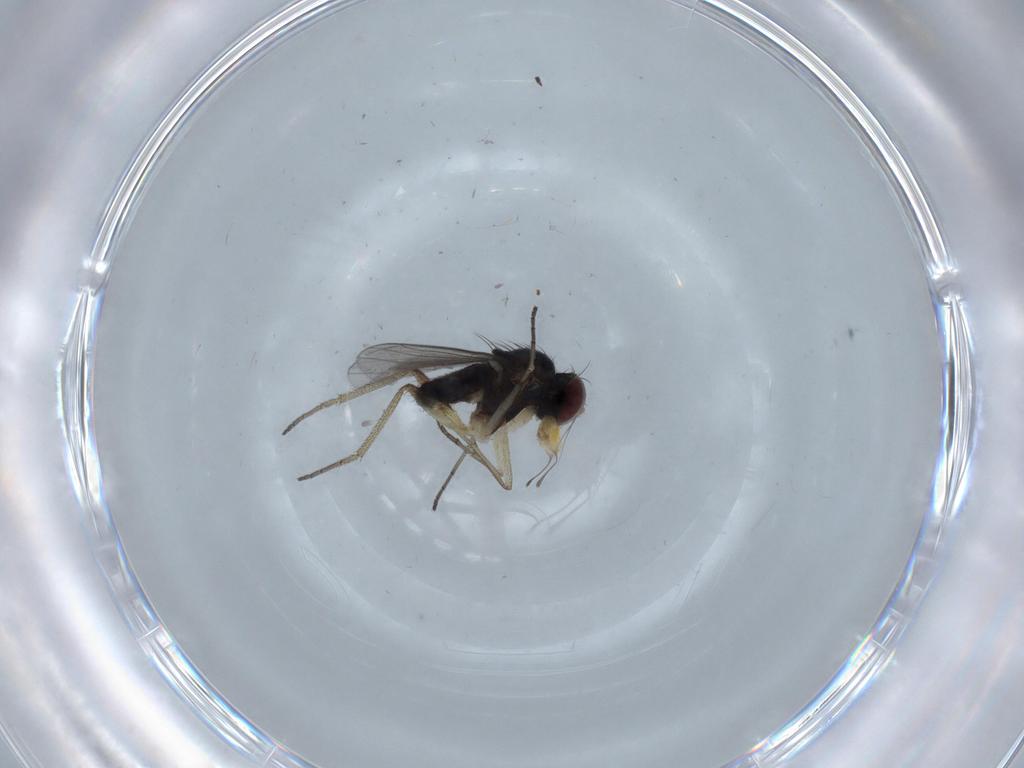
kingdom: Animalia
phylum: Arthropoda
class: Insecta
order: Diptera
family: Dolichopodidae
